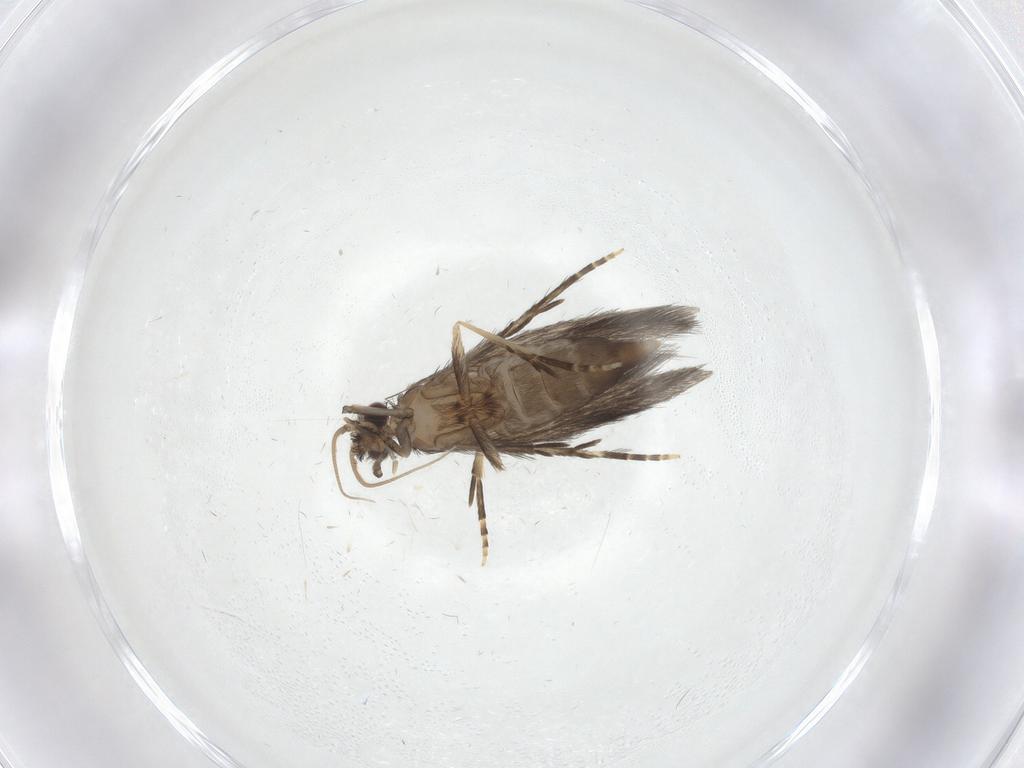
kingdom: Animalia
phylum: Arthropoda
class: Insecta
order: Trichoptera
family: Hydroptilidae
